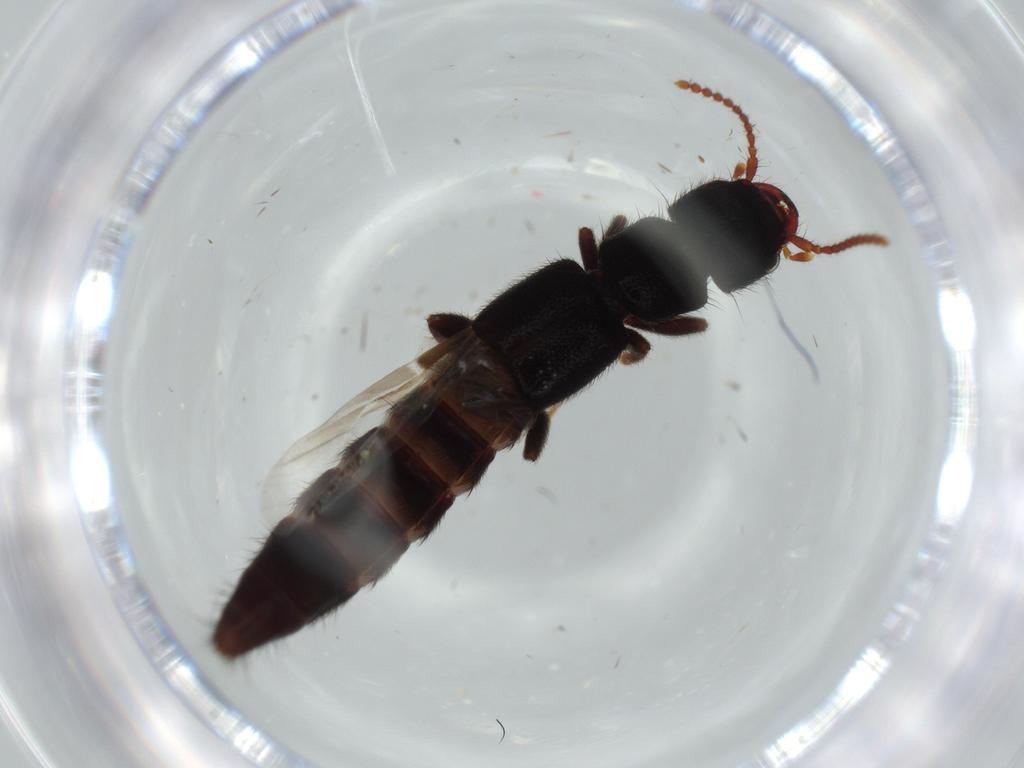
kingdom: Animalia
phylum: Arthropoda
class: Insecta
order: Coleoptera
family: Staphylinidae
